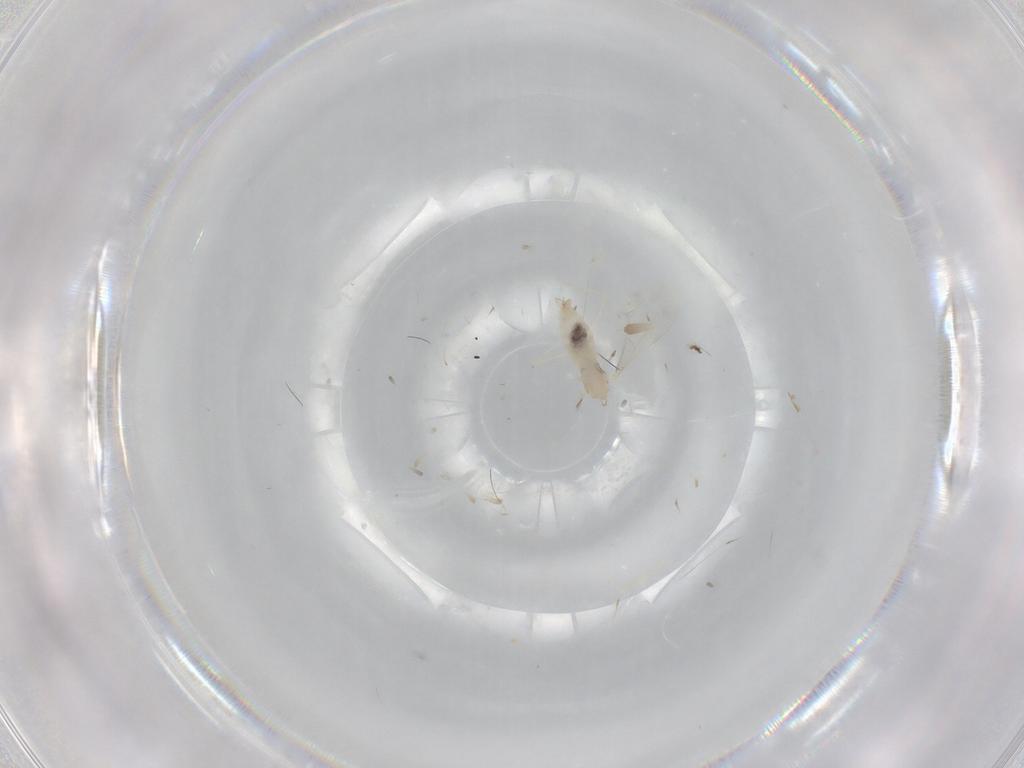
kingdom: Animalia
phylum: Arthropoda
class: Insecta
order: Diptera
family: Cecidomyiidae
